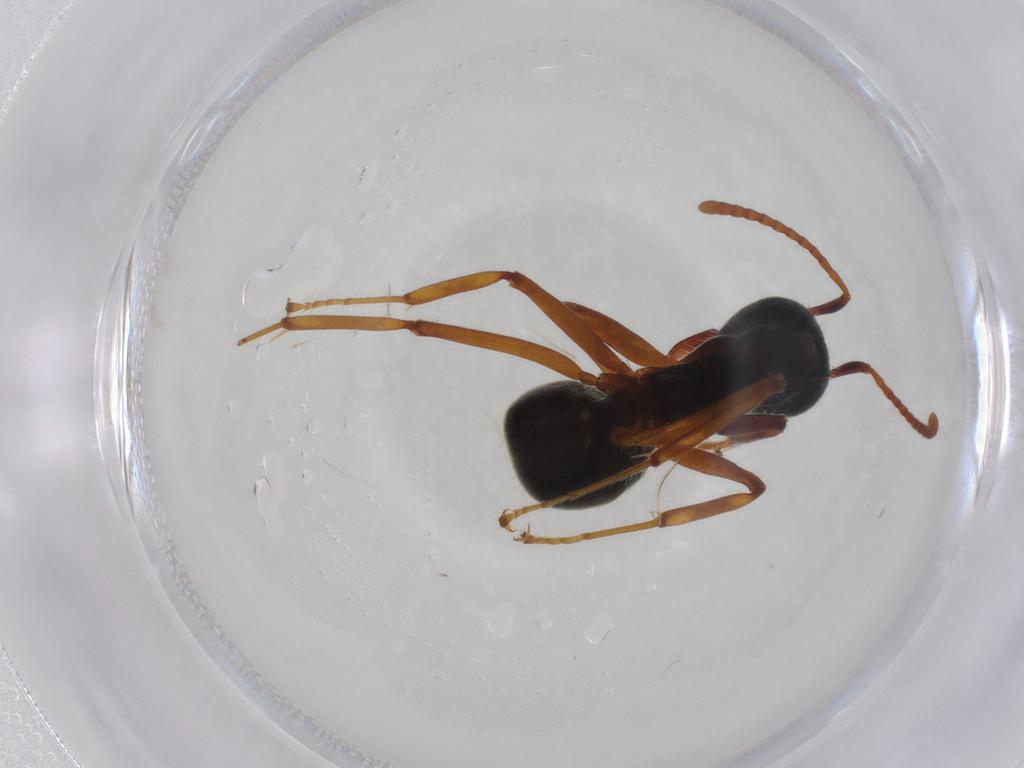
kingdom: Animalia
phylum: Arthropoda
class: Insecta
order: Hymenoptera
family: Formicidae
